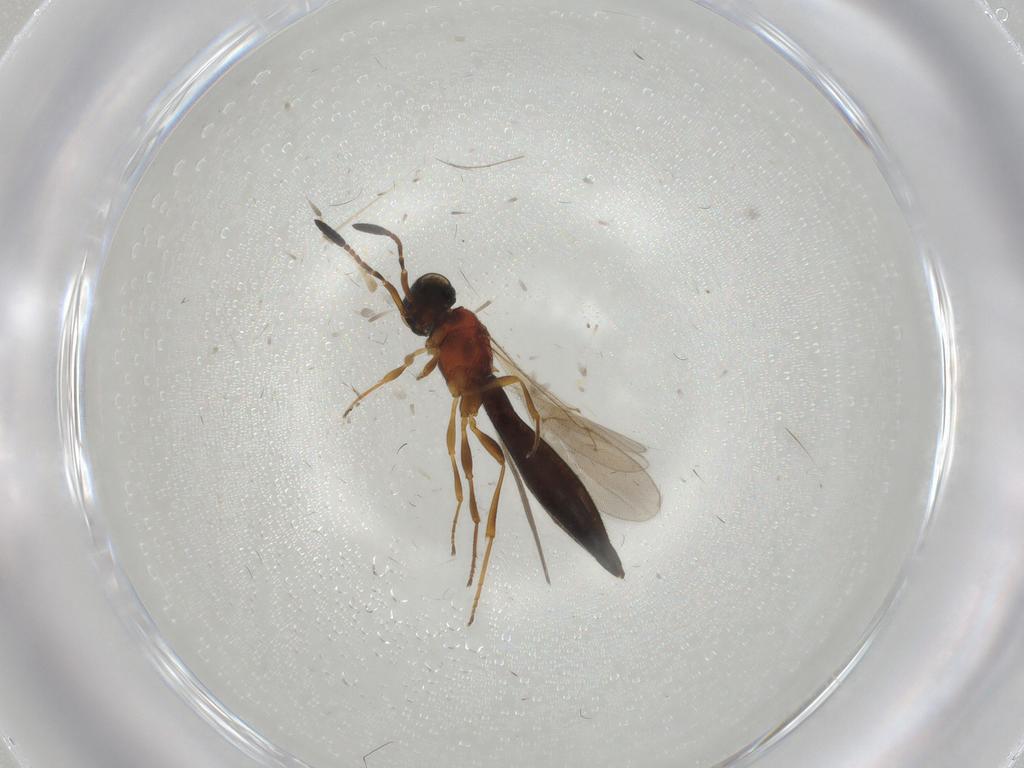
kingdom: Animalia
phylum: Arthropoda
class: Insecta
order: Hymenoptera
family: Scelionidae
